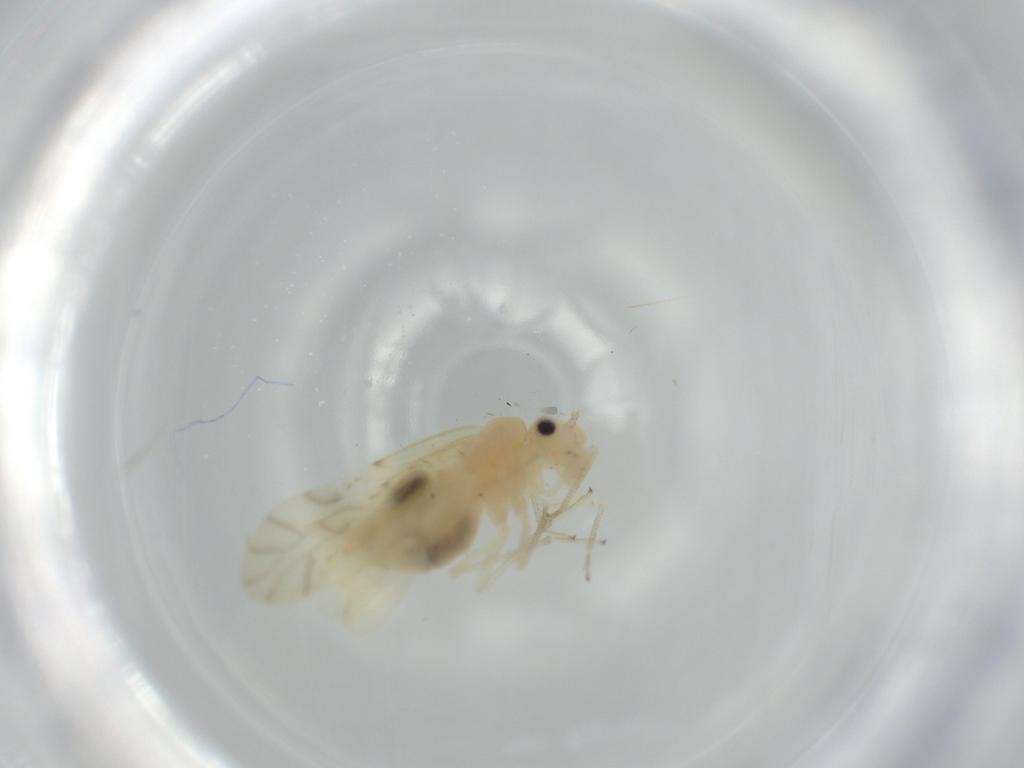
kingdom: Animalia
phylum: Arthropoda
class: Insecta
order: Psocodea
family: Caeciliusidae
